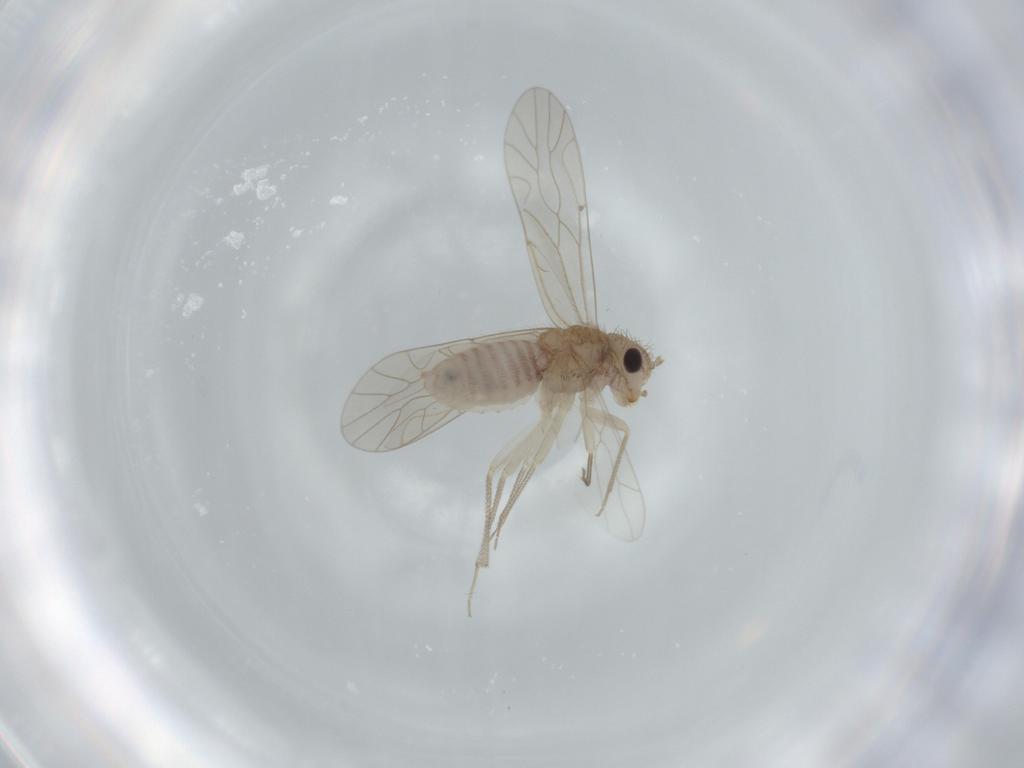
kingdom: Animalia
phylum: Arthropoda
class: Insecta
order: Psocodea
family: Caeciliusidae
